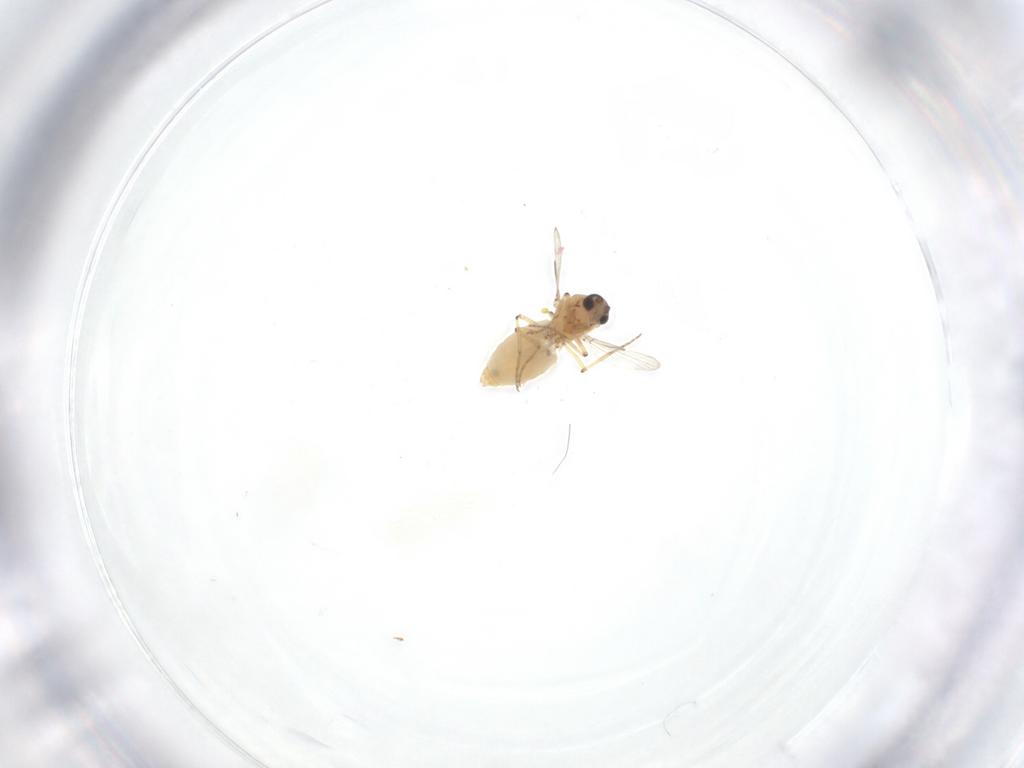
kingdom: Animalia
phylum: Arthropoda
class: Insecta
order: Diptera
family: Ceratopogonidae
